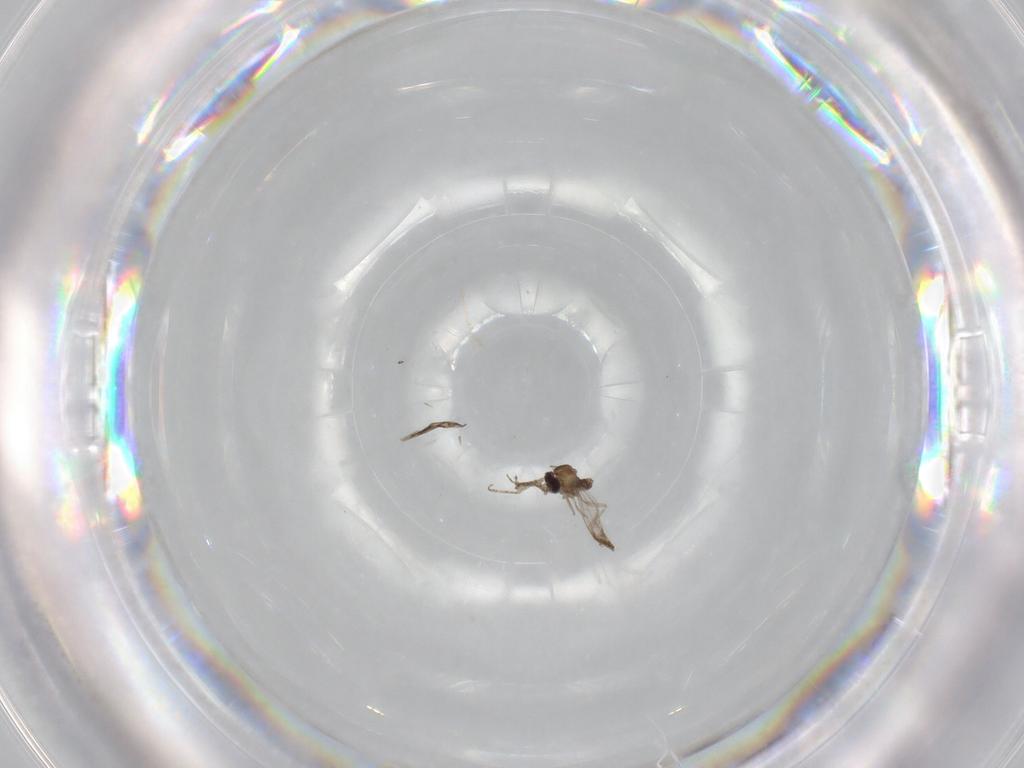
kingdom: Animalia
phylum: Arthropoda
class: Insecta
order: Diptera
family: Cecidomyiidae
